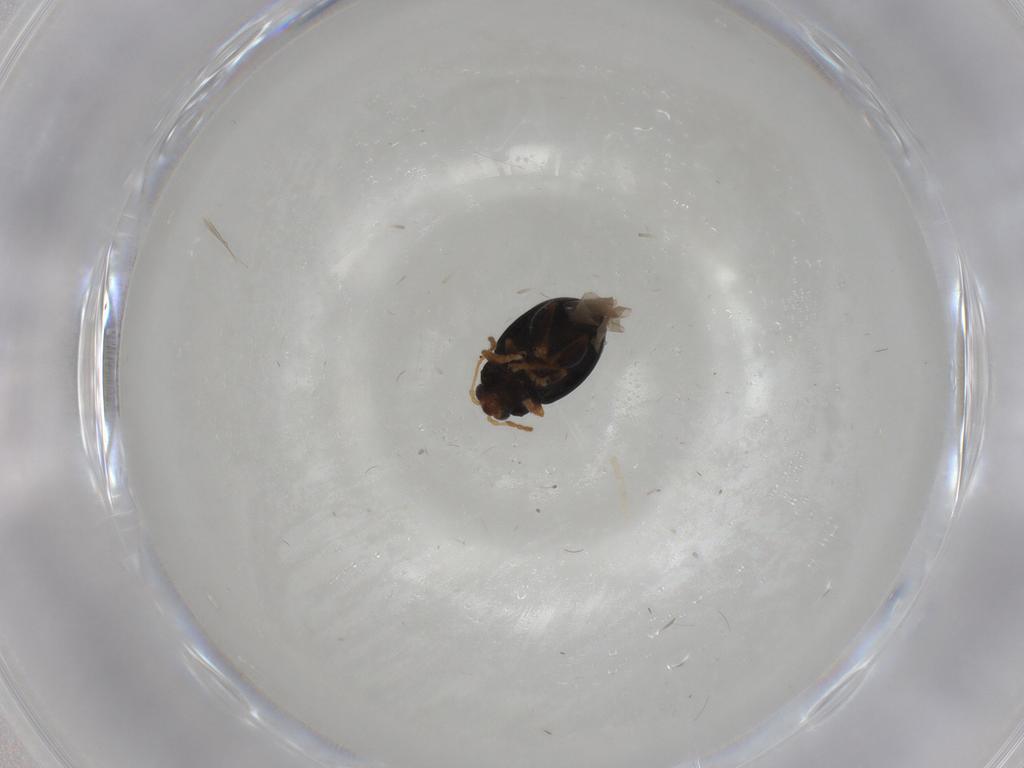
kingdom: Animalia
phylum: Arthropoda
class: Insecta
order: Coleoptera
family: Chrysomelidae
